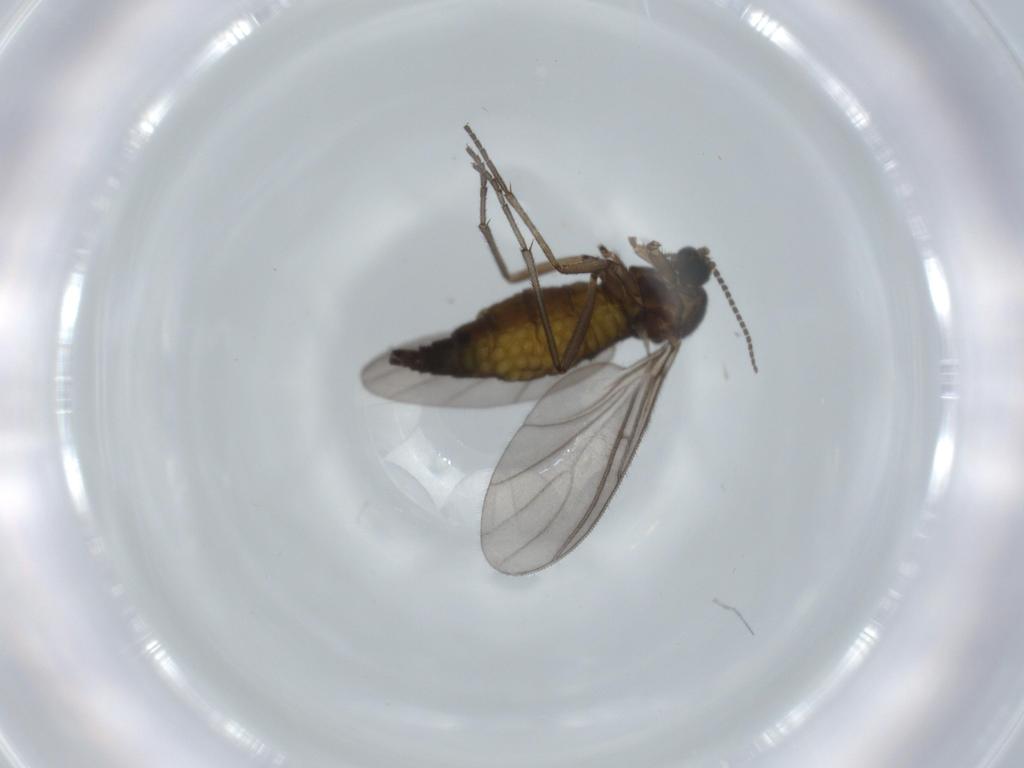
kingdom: Animalia
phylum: Arthropoda
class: Insecta
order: Diptera
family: Sciaridae
